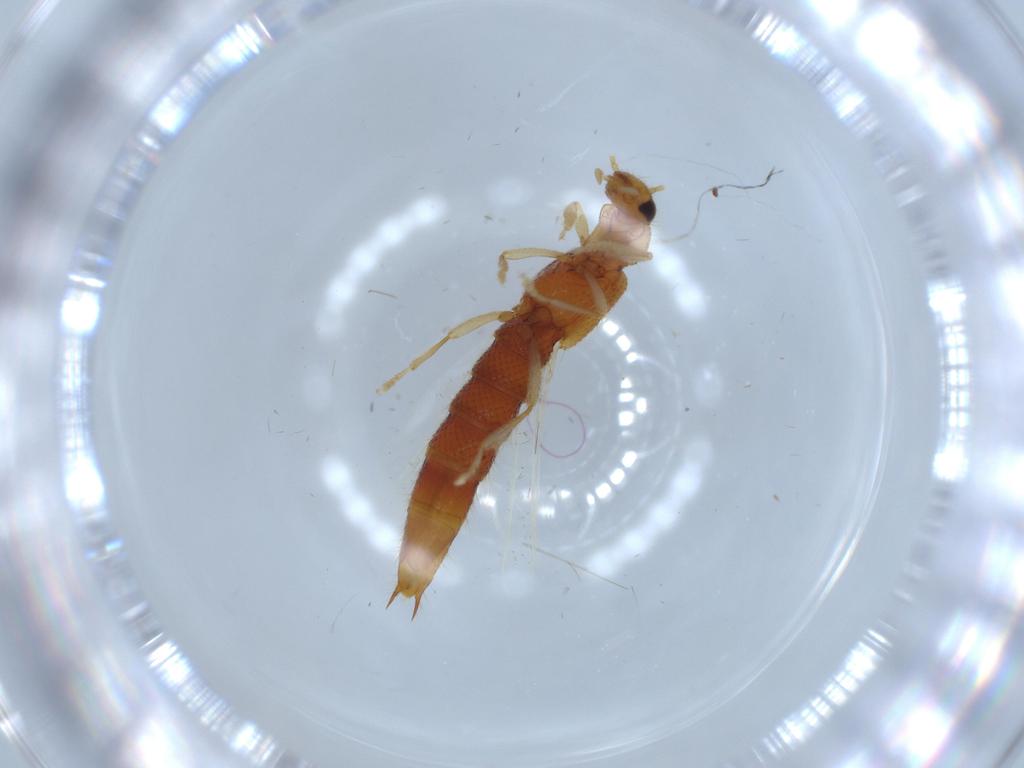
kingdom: Animalia
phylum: Arthropoda
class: Insecta
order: Coleoptera
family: Staphylinidae
